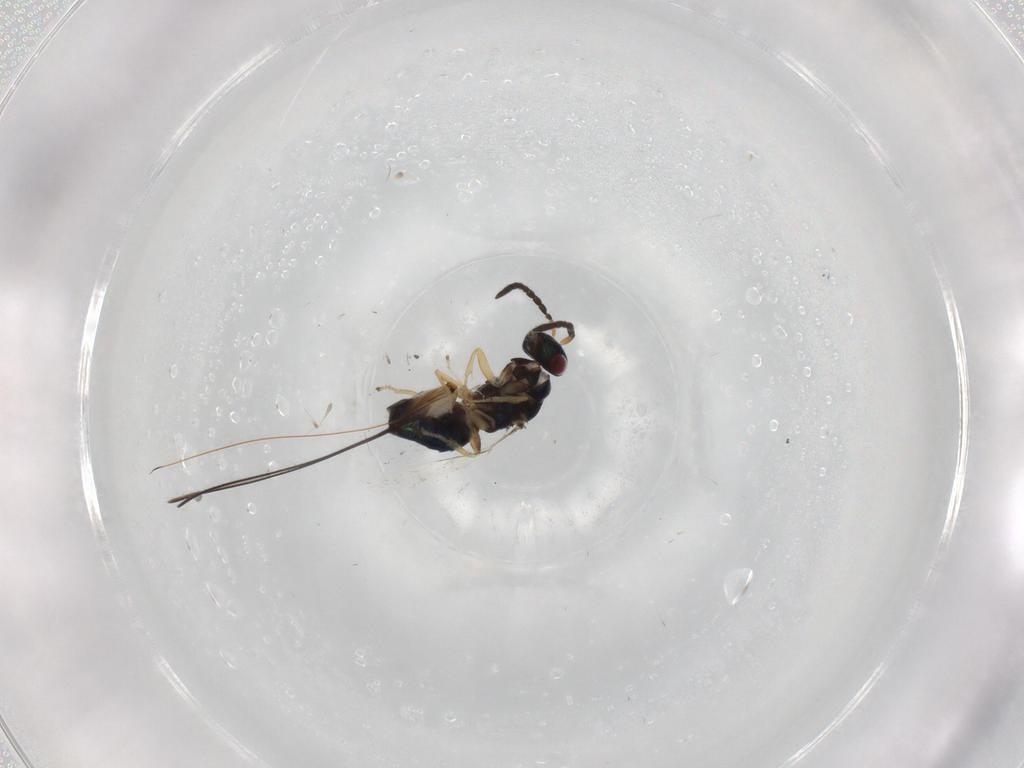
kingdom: Animalia
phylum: Arthropoda
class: Insecta
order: Hymenoptera
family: Agaonidae
